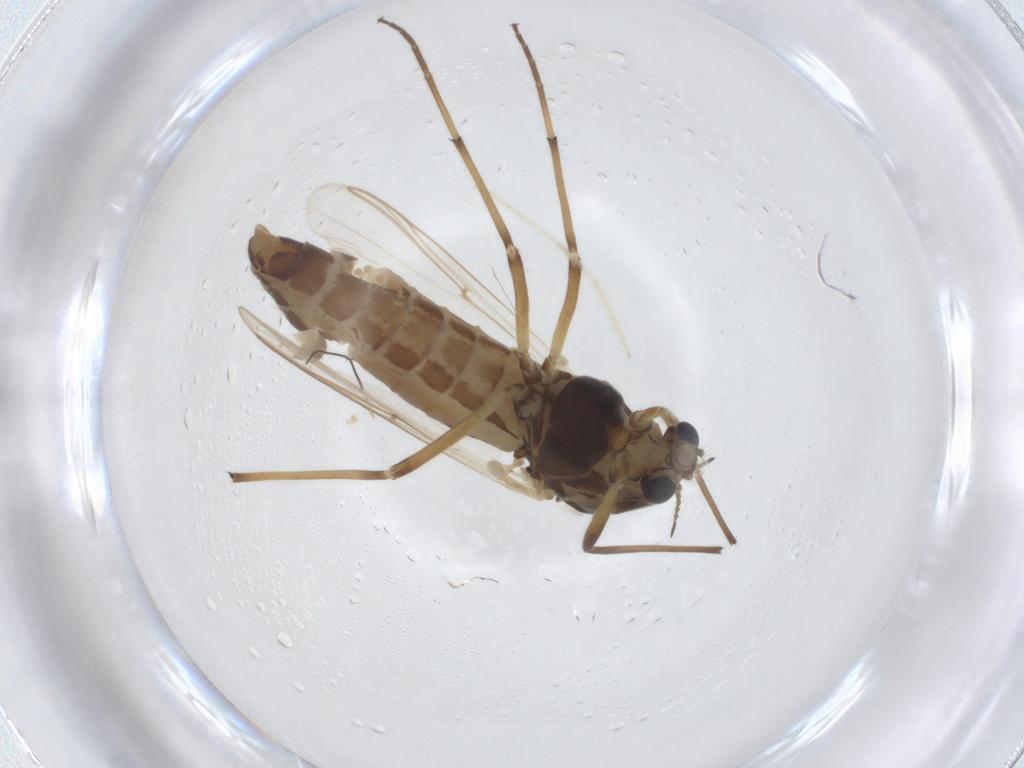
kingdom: Animalia
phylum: Arthropoda
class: Insecta
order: Diptera
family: Chironomidae
